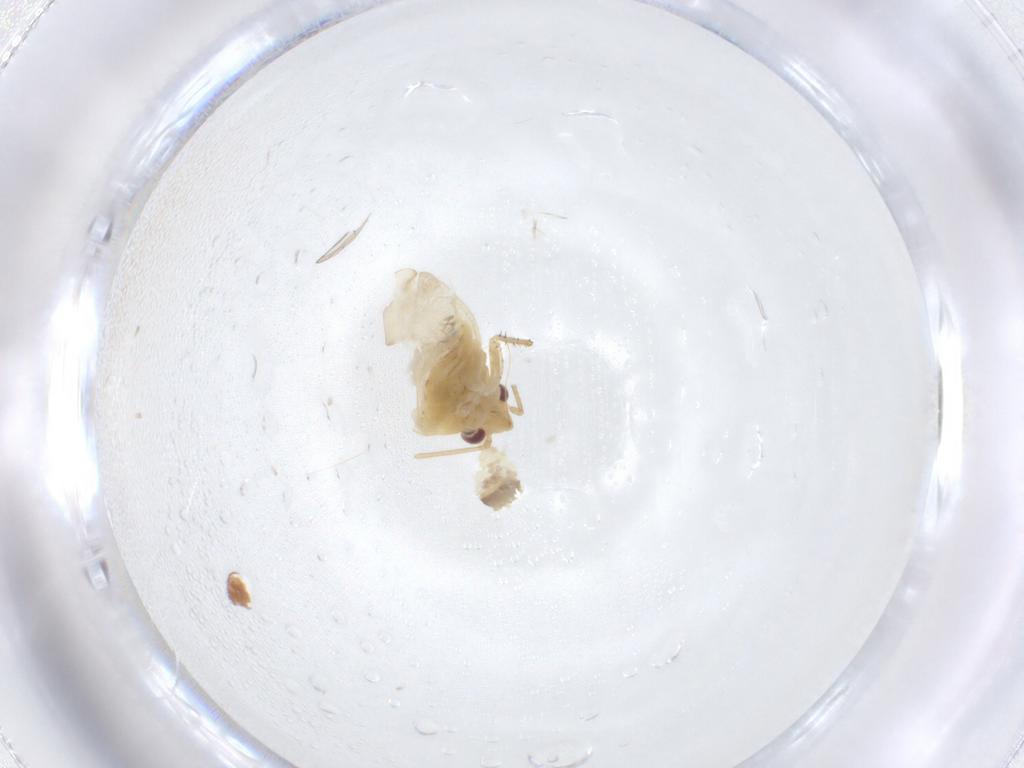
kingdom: Animalia
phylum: Arthropoda
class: Insecta
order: Hemiptera
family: Miridae
